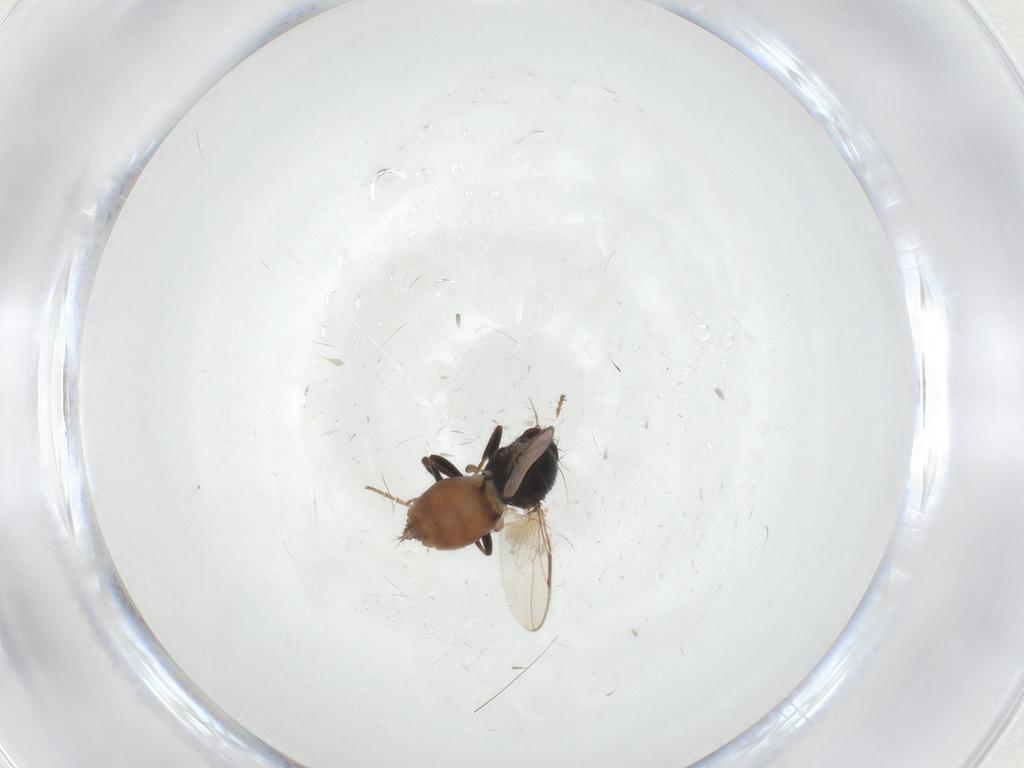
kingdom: Animalia
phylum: Arthropoda
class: Insecta
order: Diptera
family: Sphaeroceridae
